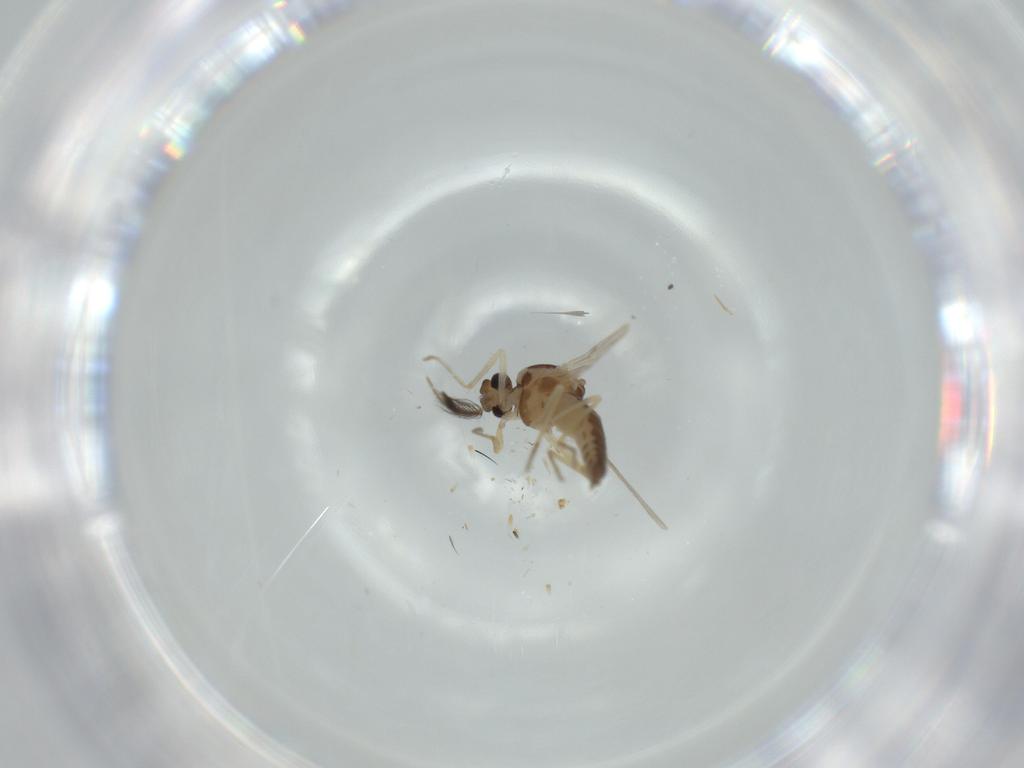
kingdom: Animalia
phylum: Arthropoda
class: Insecta
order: Diptera
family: Ceratopogonidae
